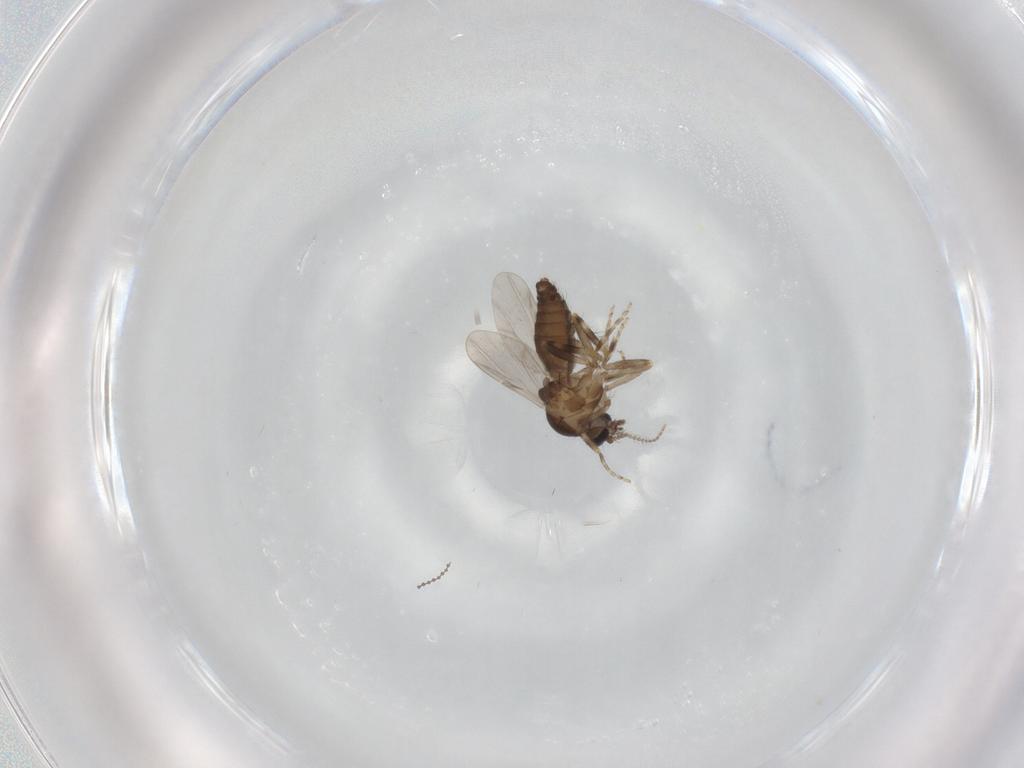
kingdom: Animalia
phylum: Arthropoda
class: Insecta
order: Diptera
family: Ceratopogonidae
